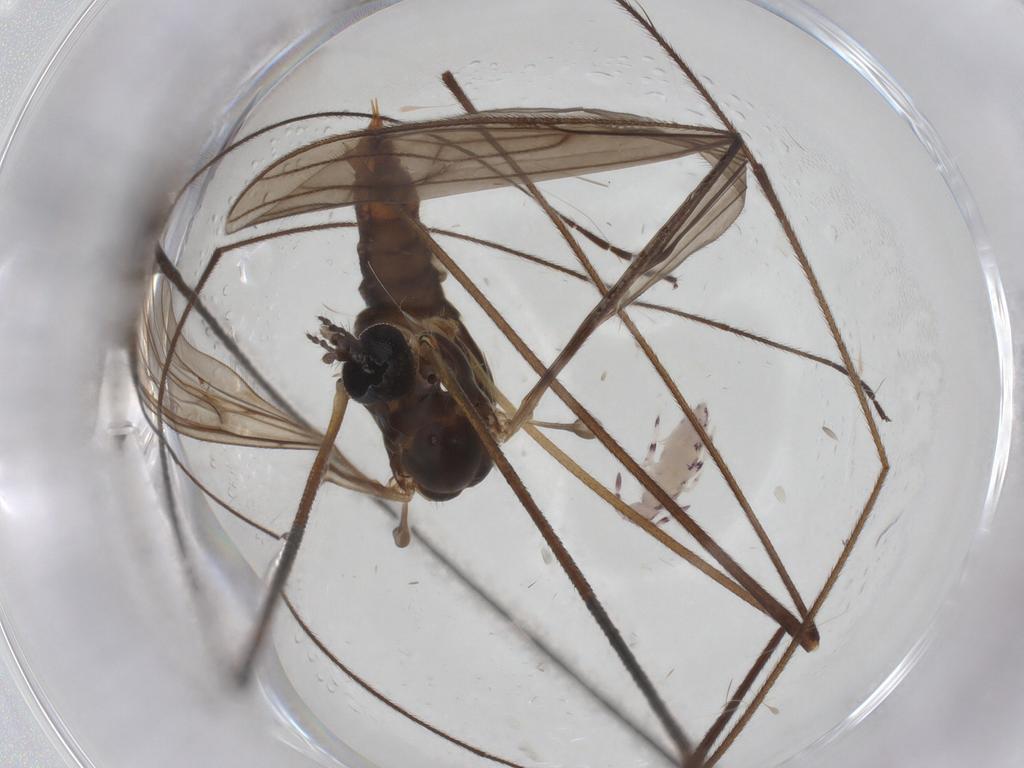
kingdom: Animalia
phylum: Arthropoda
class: Insecta
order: Diptera
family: Limoniidae
